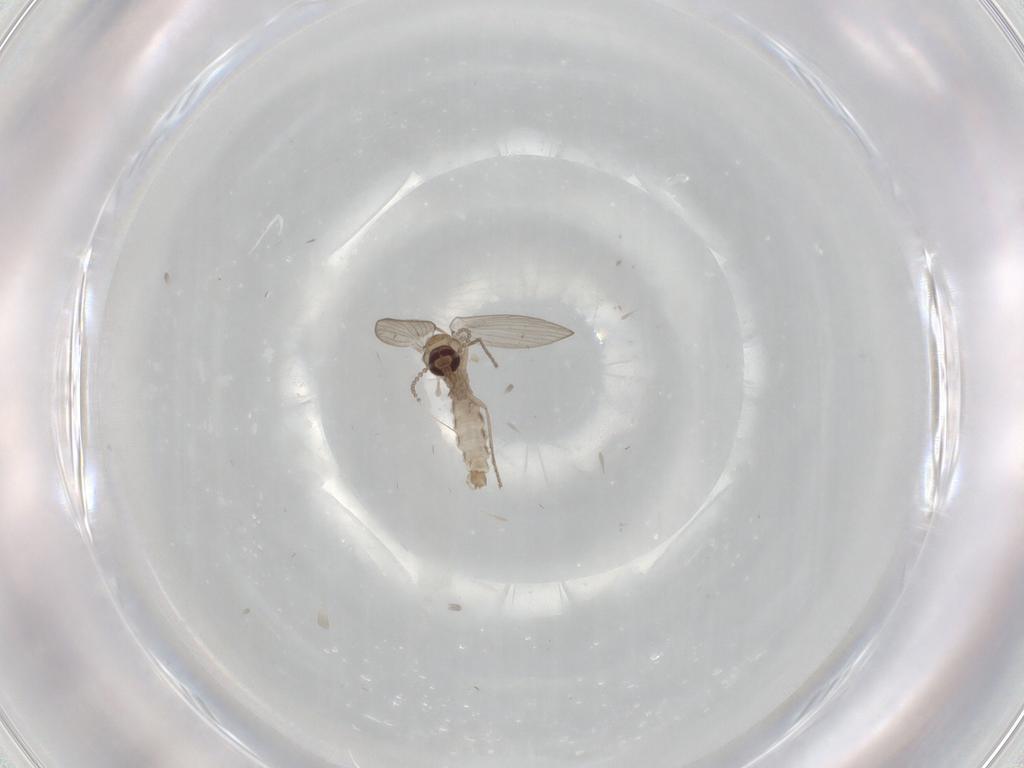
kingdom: Animalia
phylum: Arthropoda
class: Insecta
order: Diptera
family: Psychodidae
